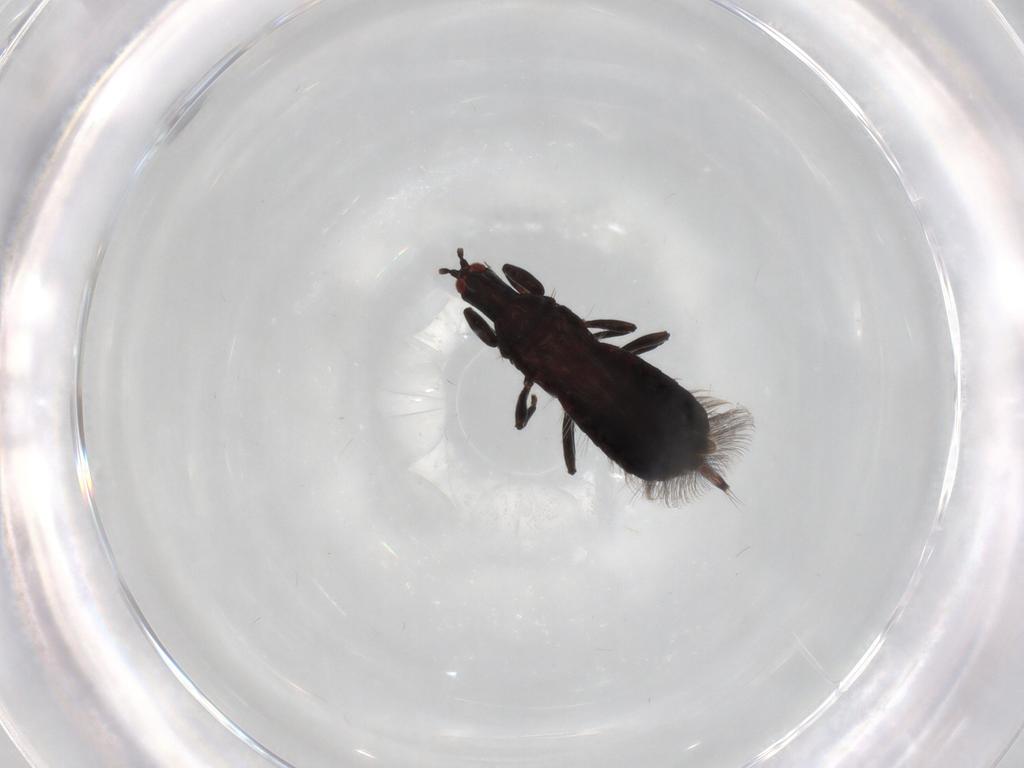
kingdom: Animalia
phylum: Arthropoda
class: Insecta
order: Thysanoptera
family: Phlaeothripidae
